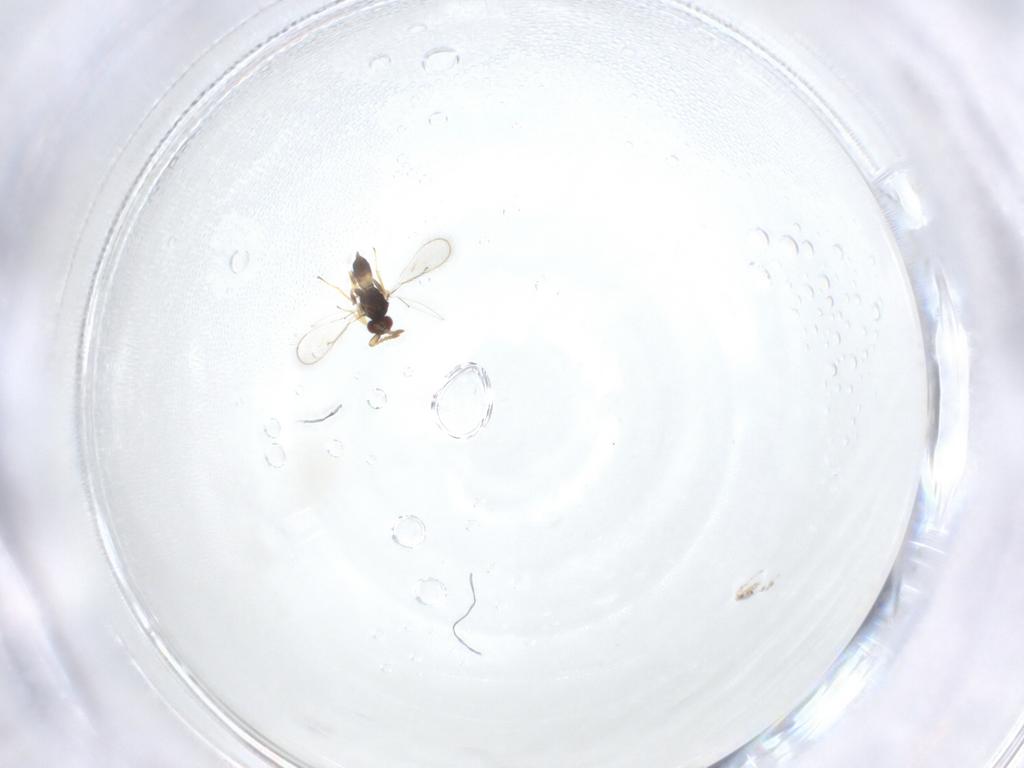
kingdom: Animalia
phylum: Arthropoda
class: Insecta
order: Hymenoptera
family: Eulophidae
